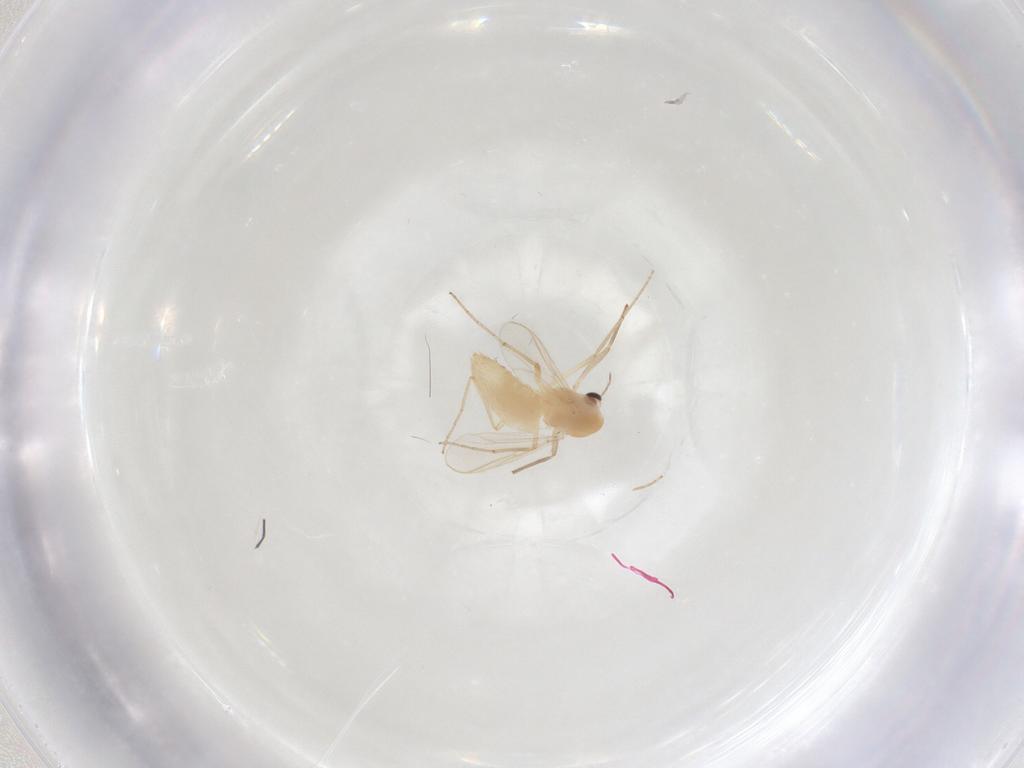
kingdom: Animalia
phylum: Arthropoda
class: Insecta
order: Diptera
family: Chironomidae
